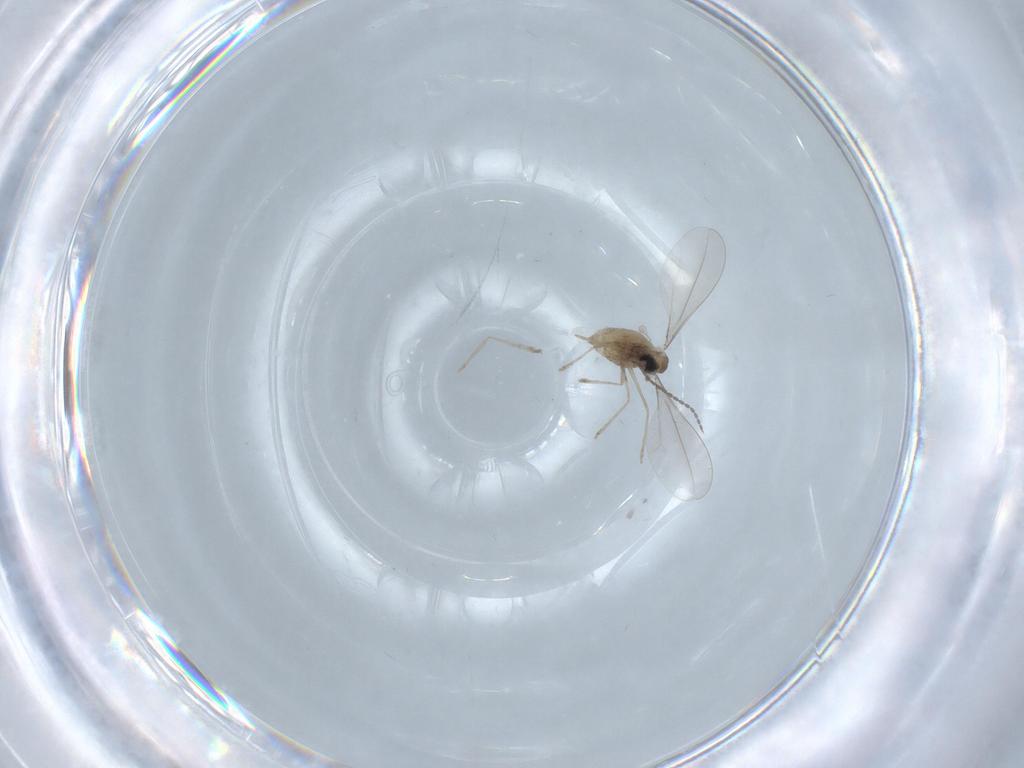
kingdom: Animalia
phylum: Arthropoda
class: Insecta
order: Diptera
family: Cecidomyiidae
